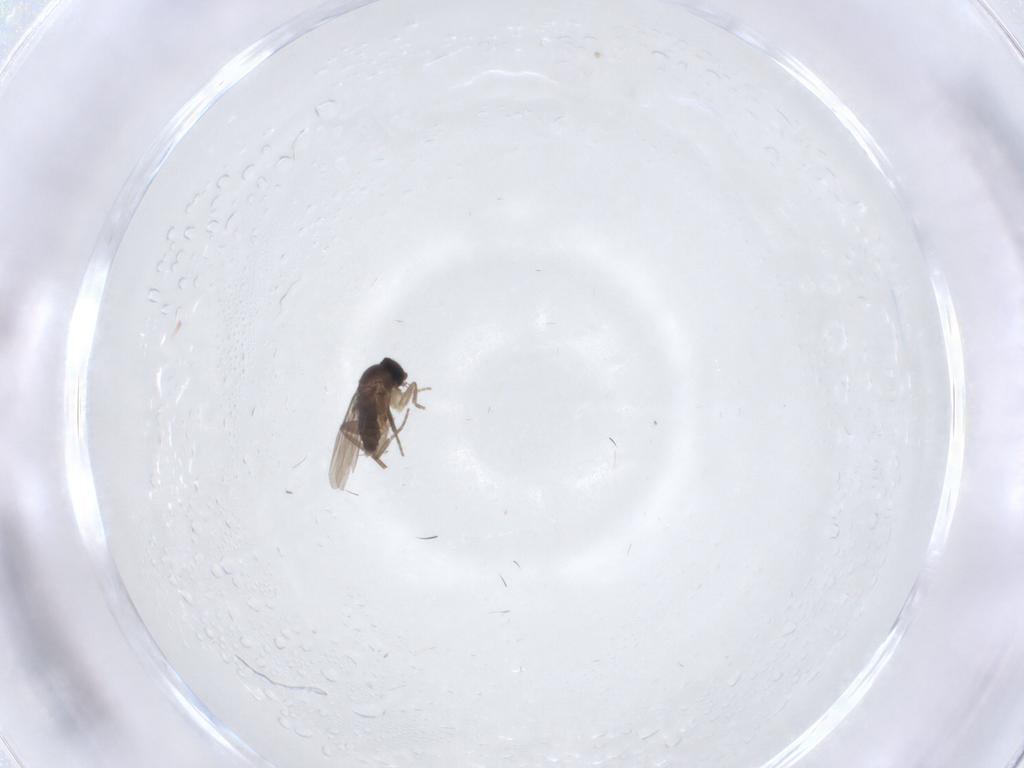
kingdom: Animalia
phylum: Arthropoda
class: Insecta
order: Diptera
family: Phoridae
